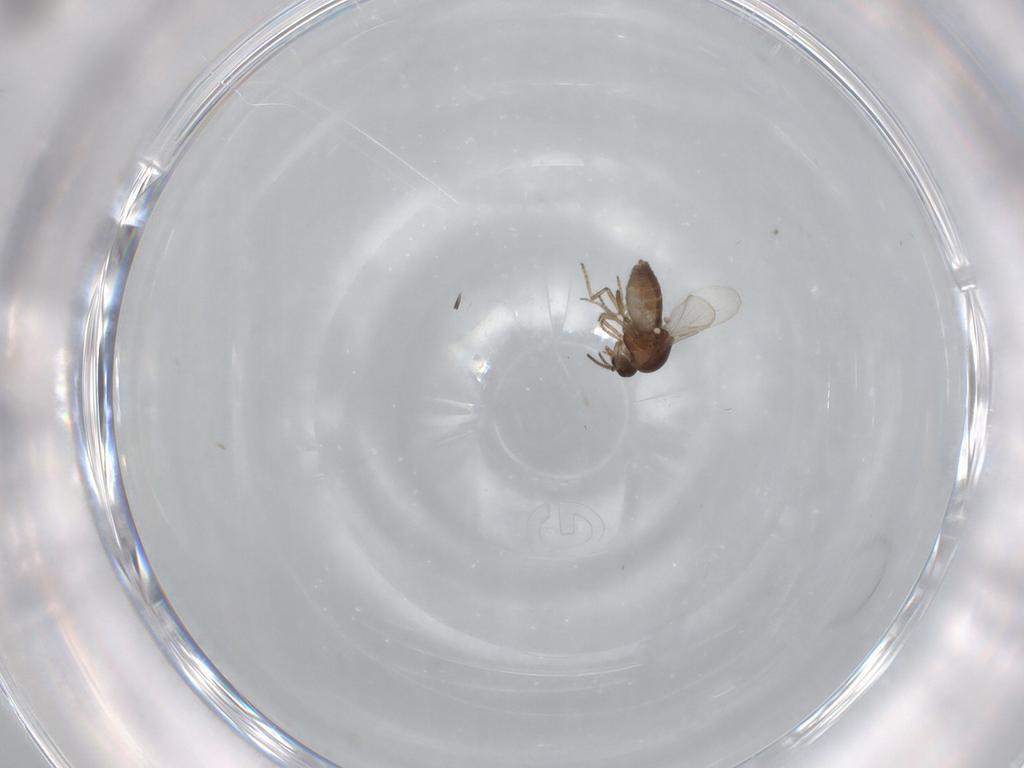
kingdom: Animalia
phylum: Arthropoda
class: Insecta
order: Diptera
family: Ceratopogonidae
